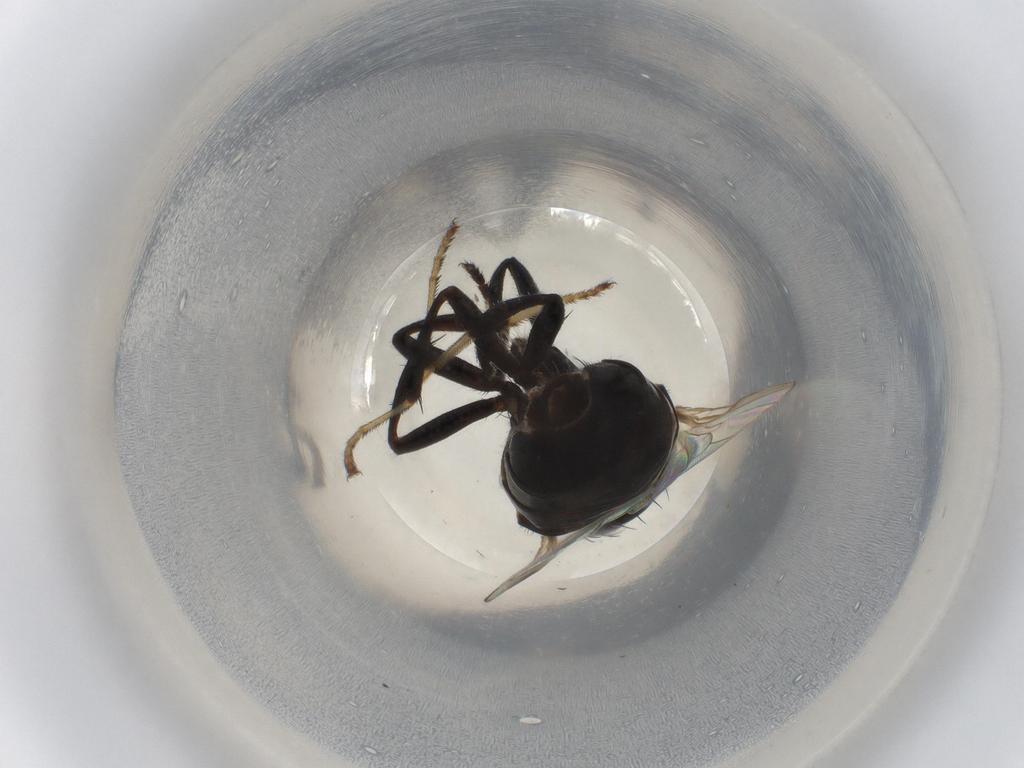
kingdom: Animalia
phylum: Arthropoda
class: Insecta
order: Diptera
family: Ulidiidae
